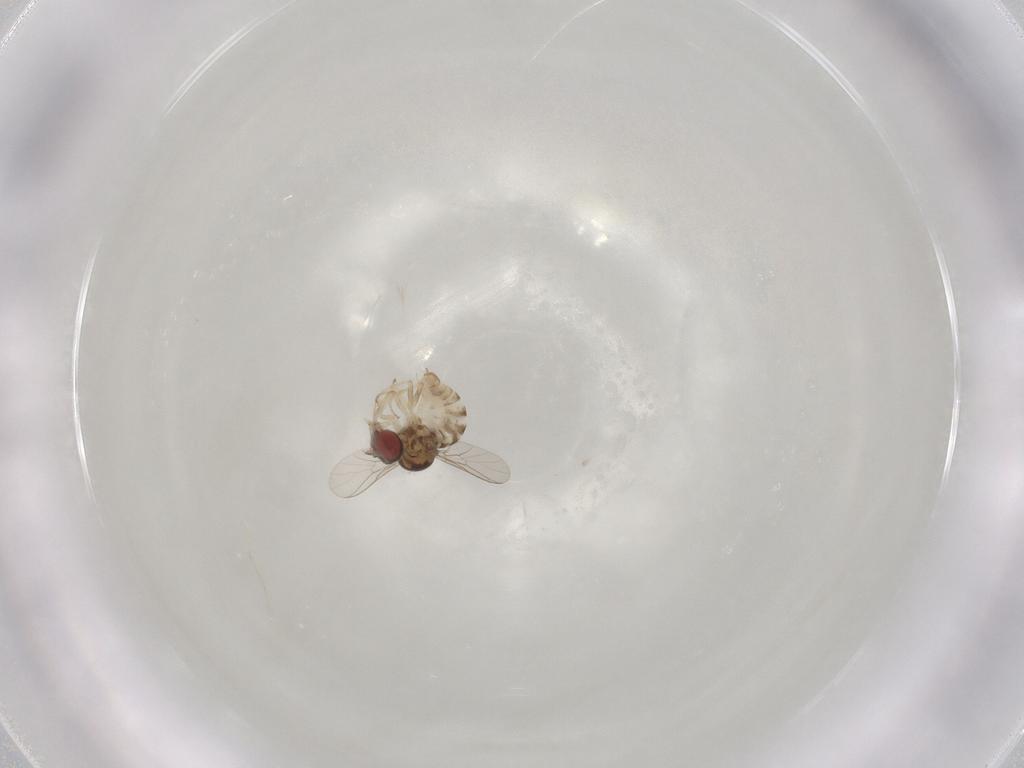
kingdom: Animalia
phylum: Arthropoda
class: Insecta
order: Diptera
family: Bombyliidae
